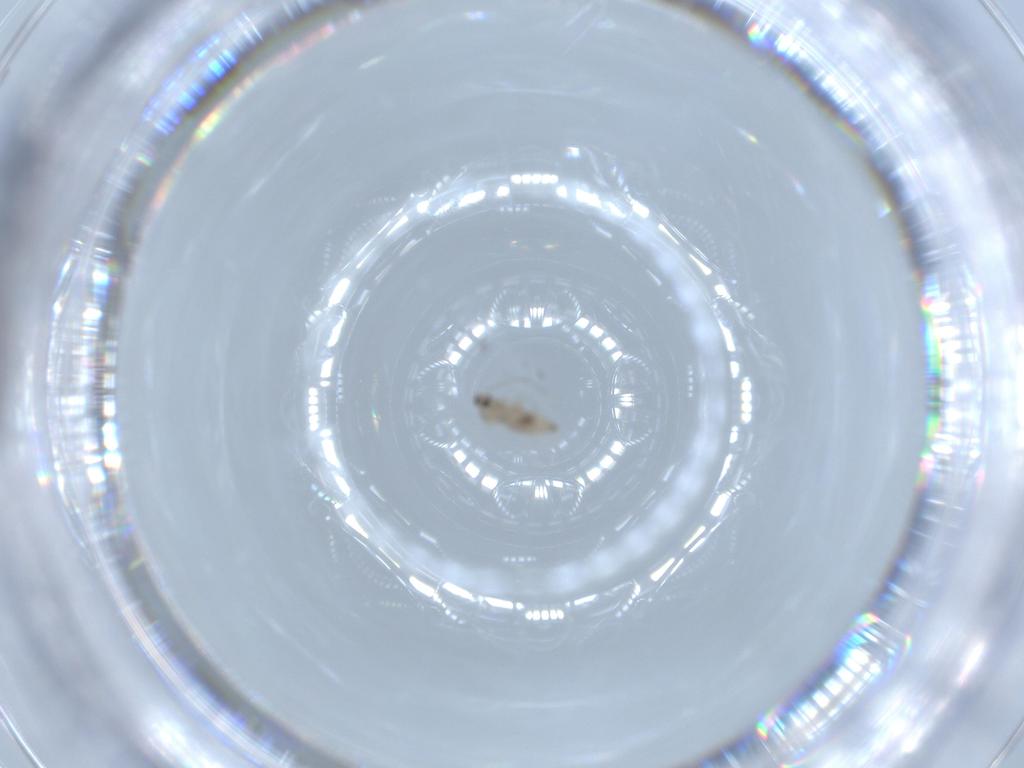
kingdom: Animalia
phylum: Arthropoda
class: Insecta
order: Diptera
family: Cecidomyiidae
